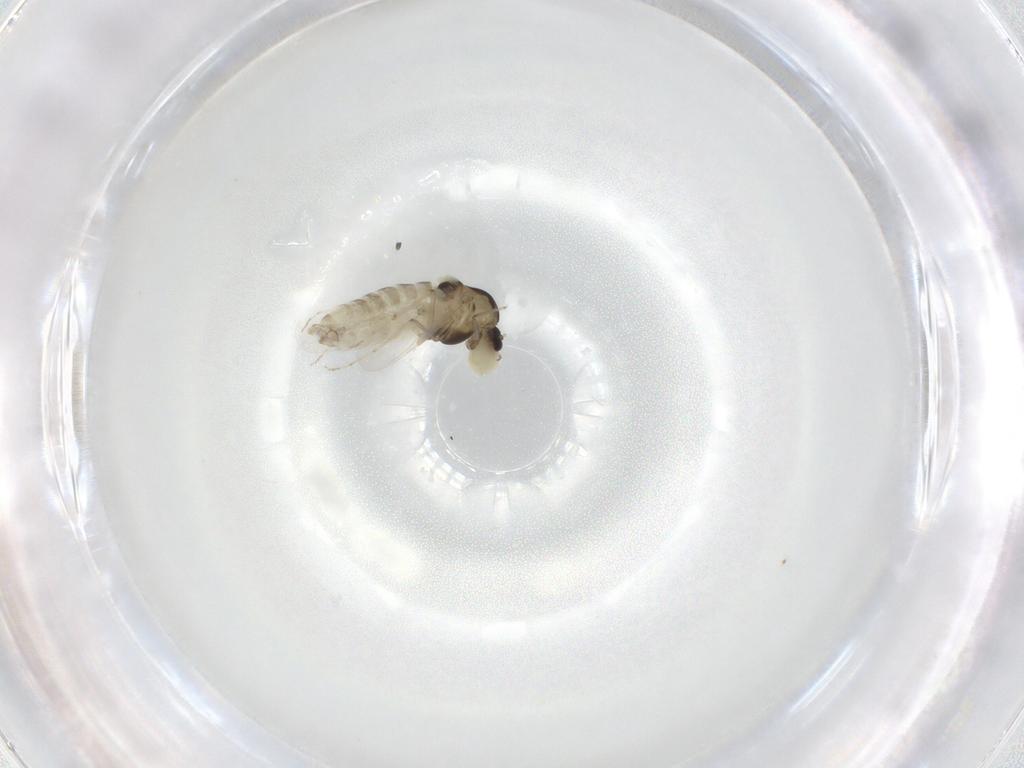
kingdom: Animalia
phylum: Arthropoda
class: Insecta
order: Diptera
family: Chironomidae
